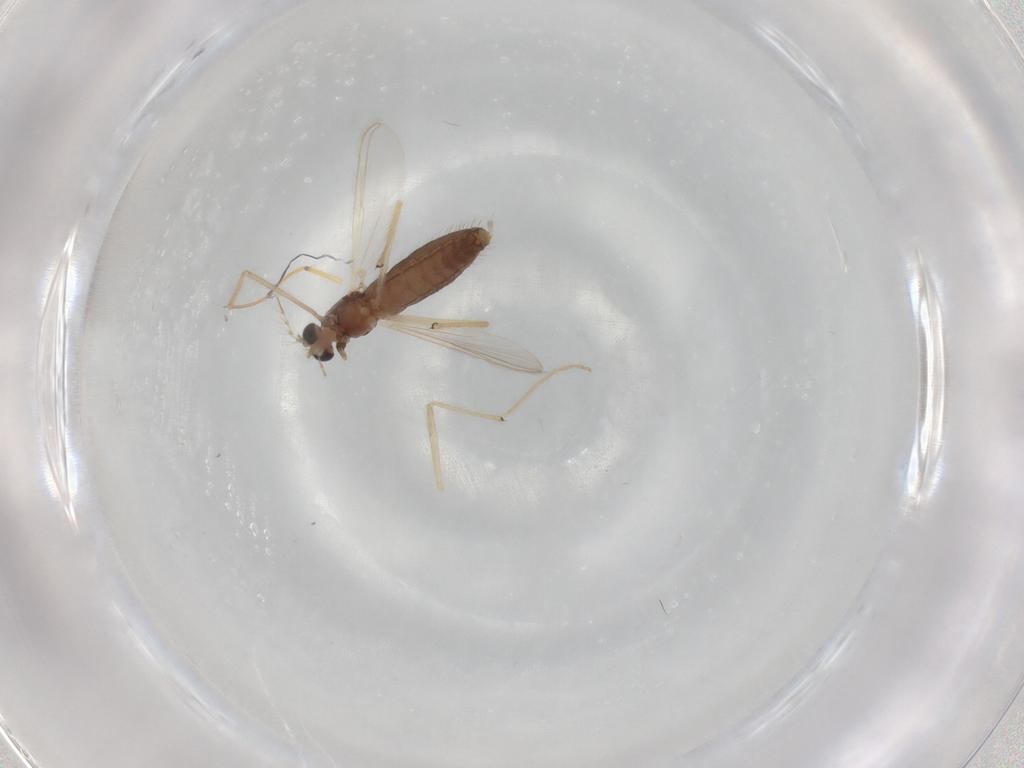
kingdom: Animalia
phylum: Arthropoda
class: Insecta
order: Diptera
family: Chironomidae
